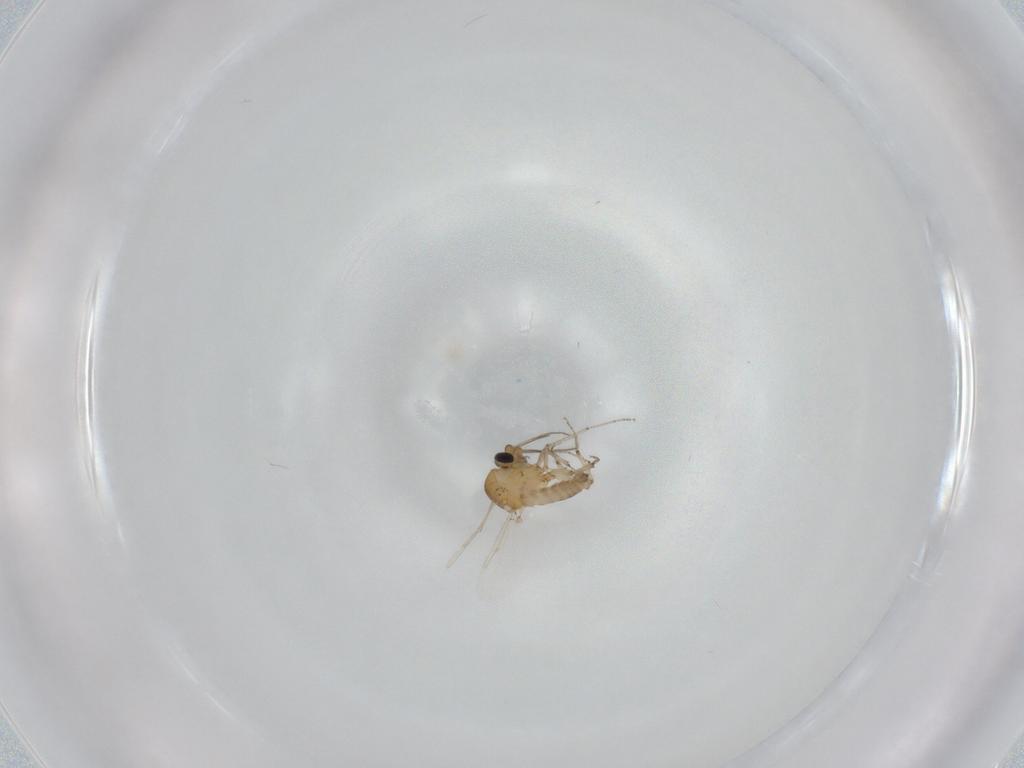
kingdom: Animalia
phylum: Arthropoda
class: Insecta
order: Diptera
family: Ceratopogonidae
